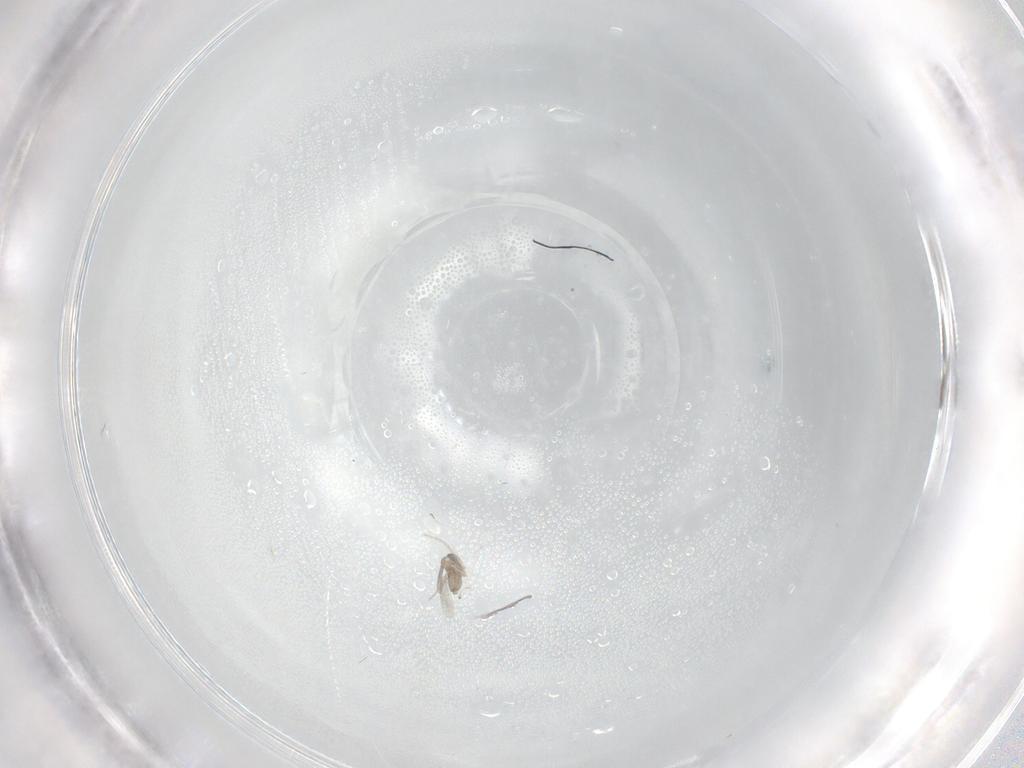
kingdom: Animalia
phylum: Arthropoda
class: Insecta
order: Diptera
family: Cecidomyiidae
